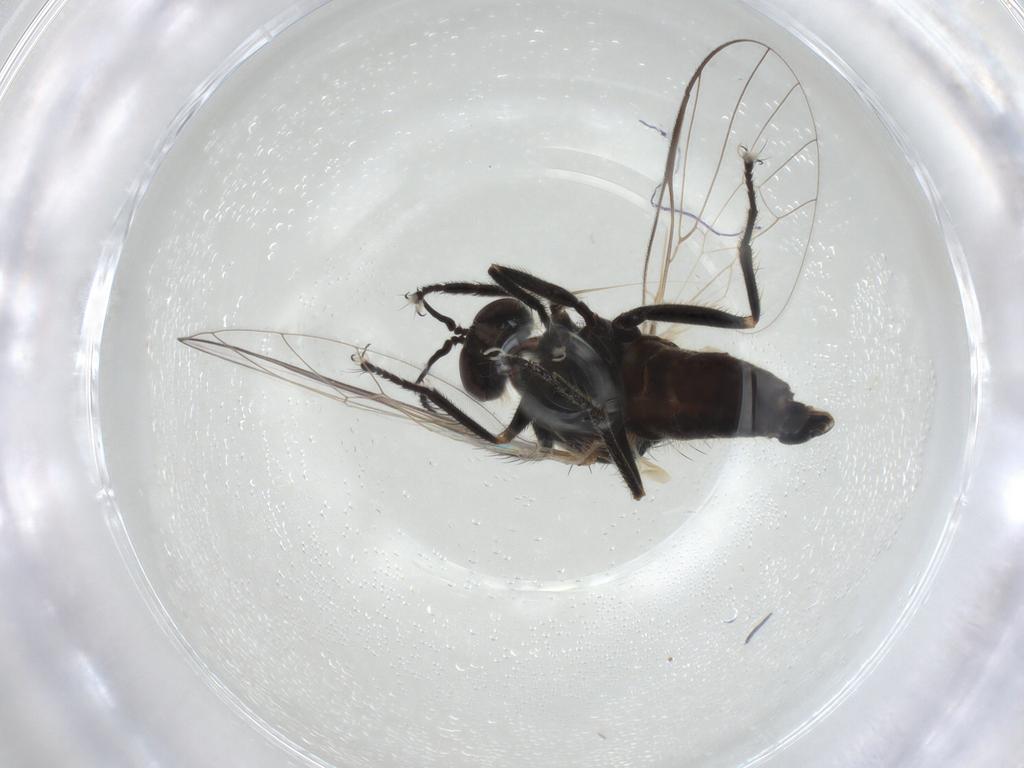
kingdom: Animalia
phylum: Arthropoda
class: Insecta
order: Diptera
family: Empididae
